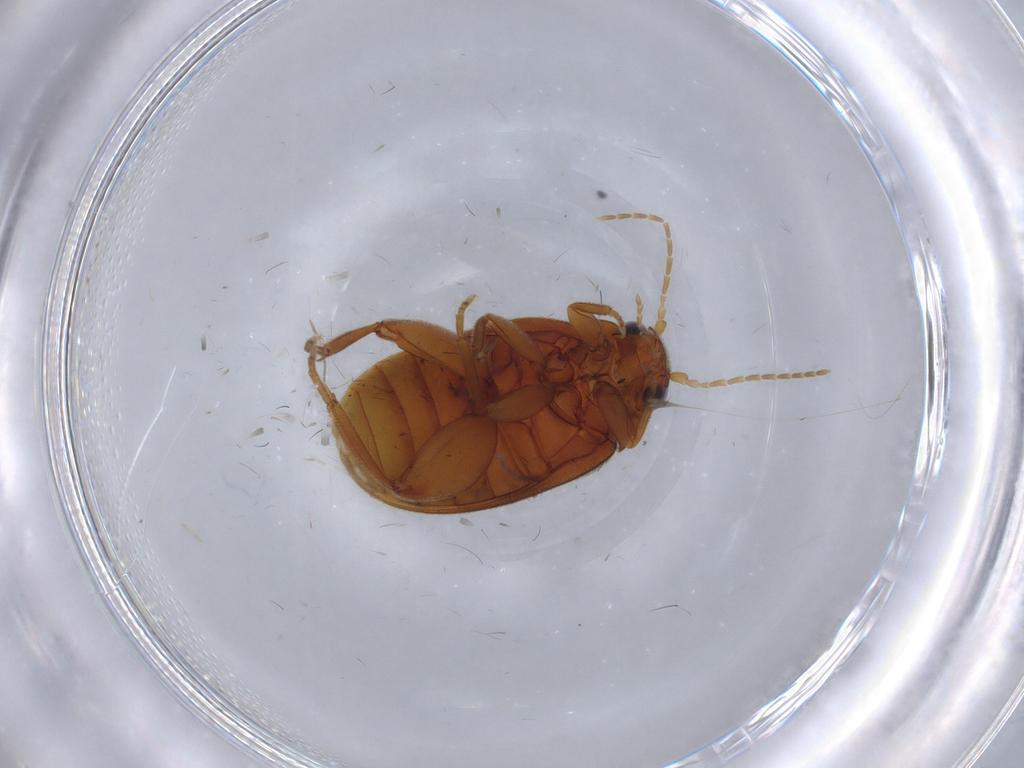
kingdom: Animalia
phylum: Arthropoda
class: Insecta
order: Coleoptera
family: Scirtidae
